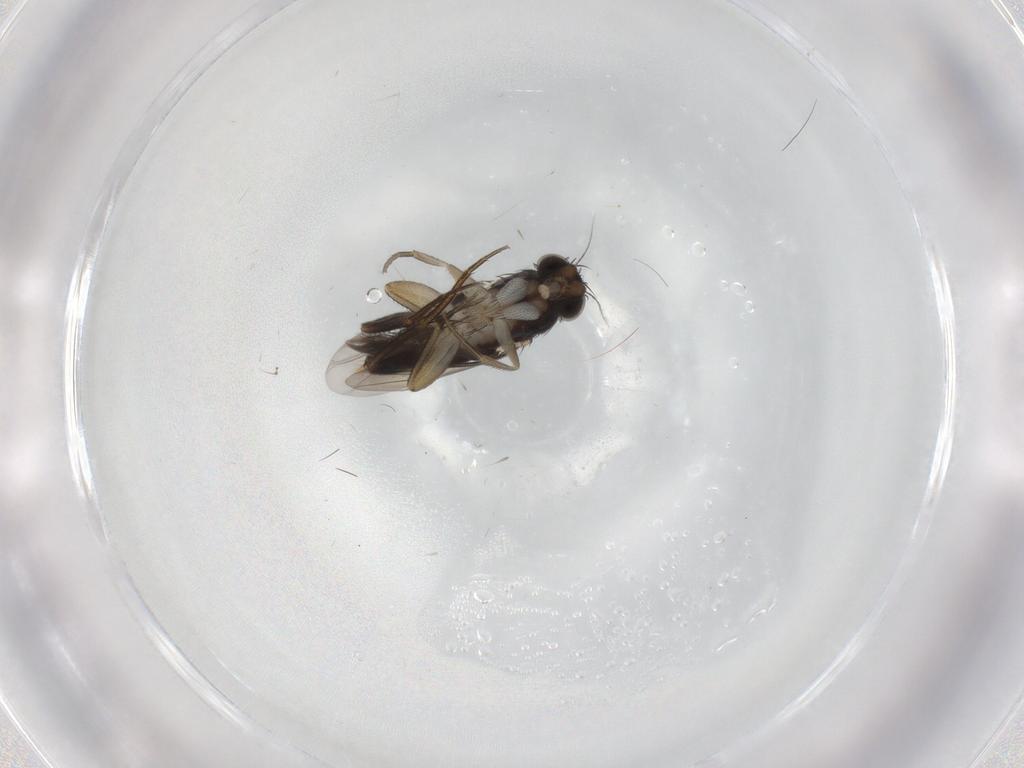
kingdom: Animalia
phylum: Arthropoda
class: Insecta
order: Diptera
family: Phoridae
